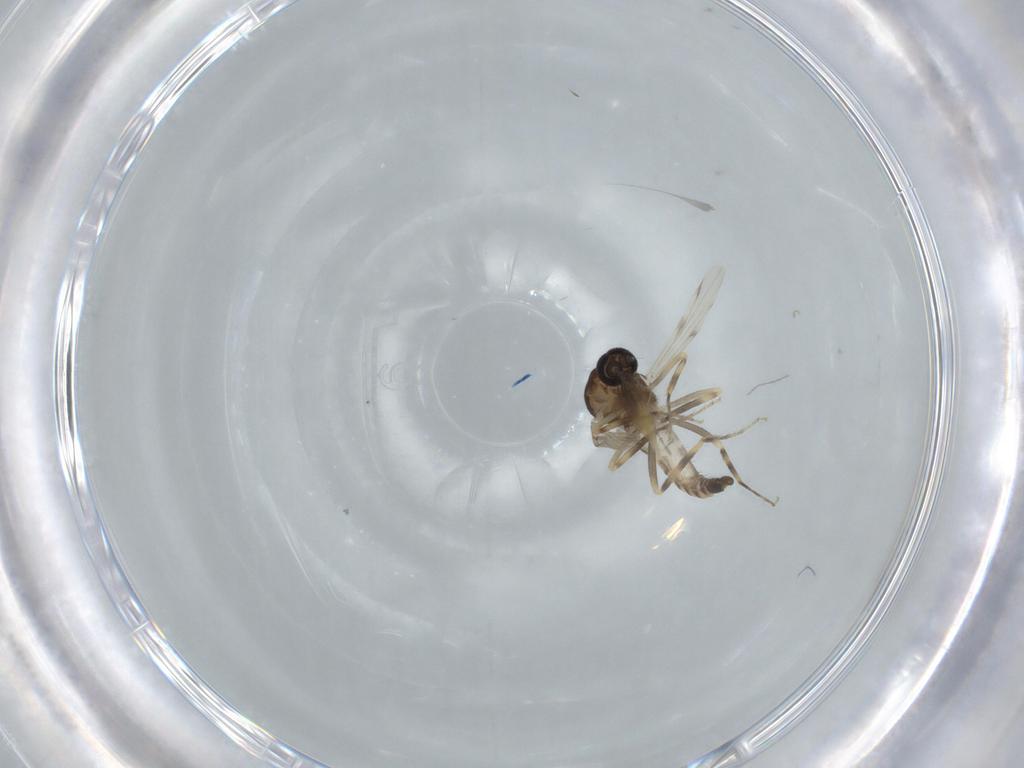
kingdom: Animalia
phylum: Arthropoda
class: Insecta
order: Diptera
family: Ceratopogonidae
